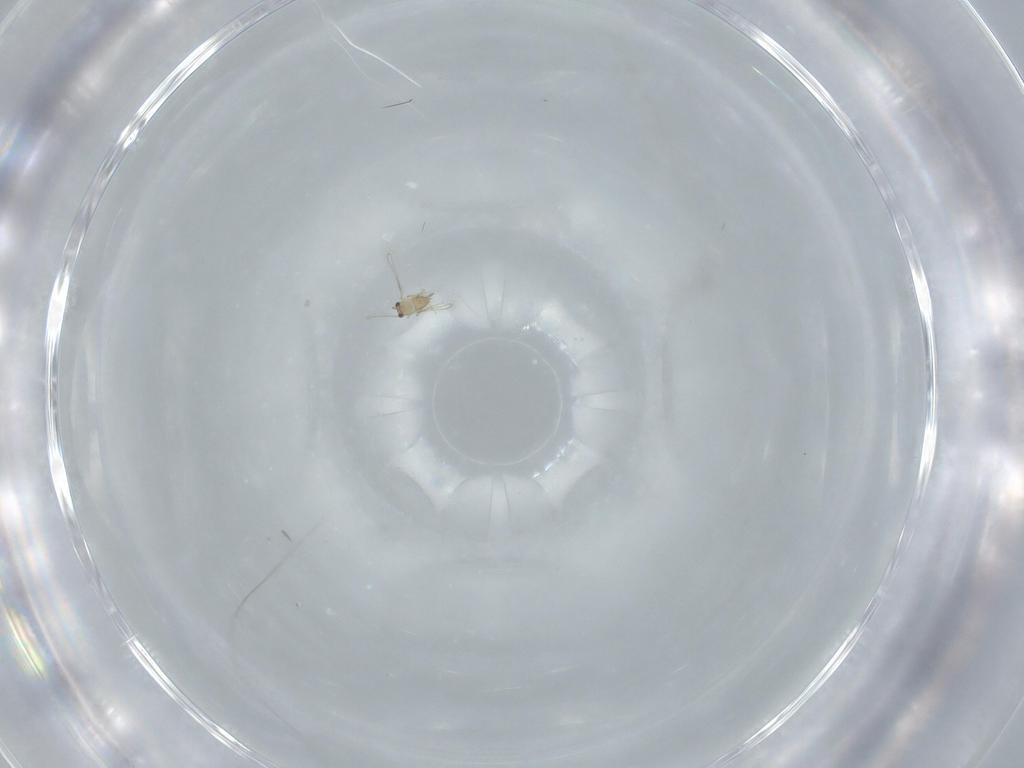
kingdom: Animalia
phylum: Arthropoda
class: Insecta
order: Hymenoptera
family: Mymaridae
